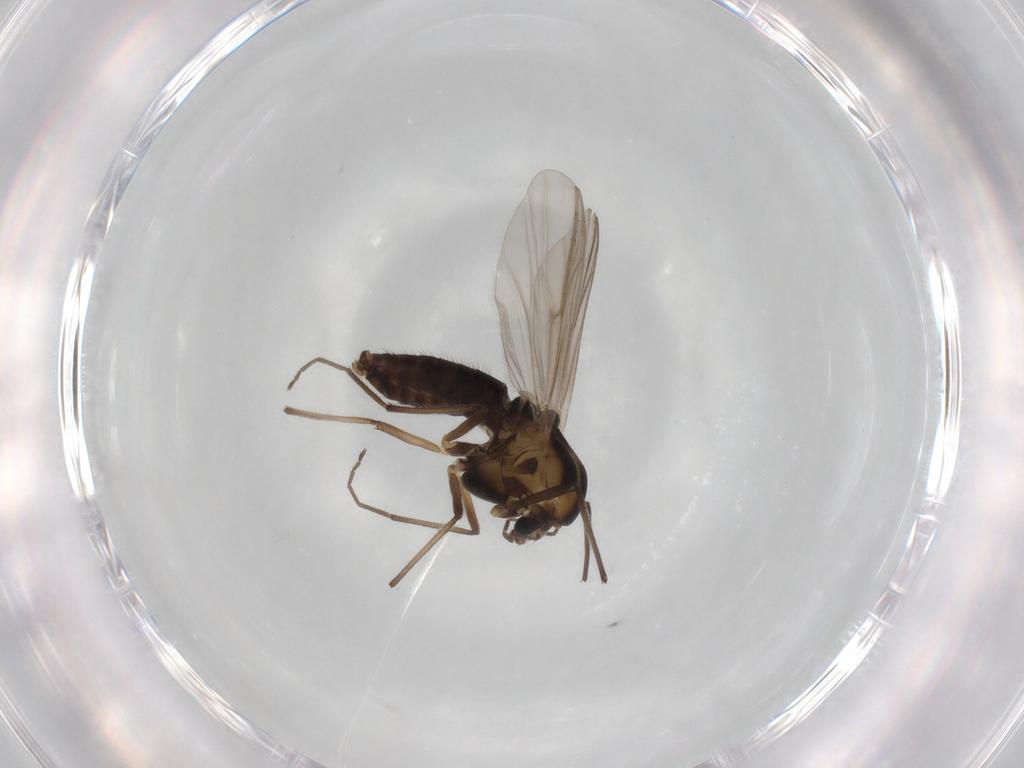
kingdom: Animalia
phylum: Arthropoda
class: Insecta
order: Diptera
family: Chironomidae
